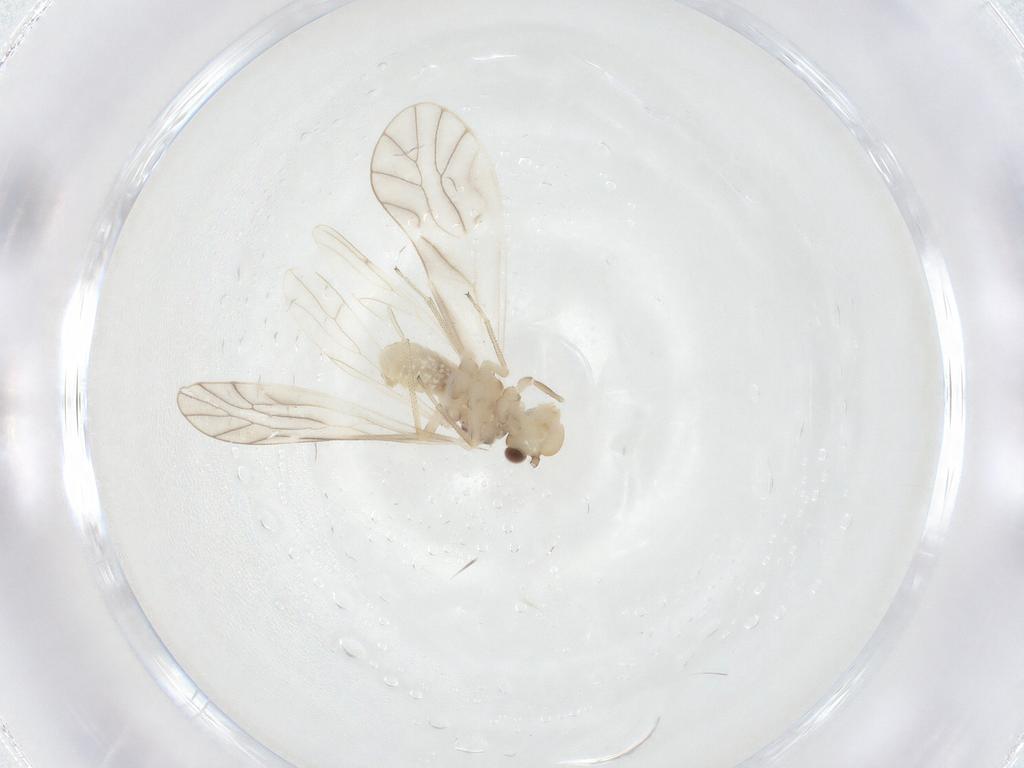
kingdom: Animalia
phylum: Arthropoda
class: Insecta
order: Psocodea
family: Caeciliusidae
